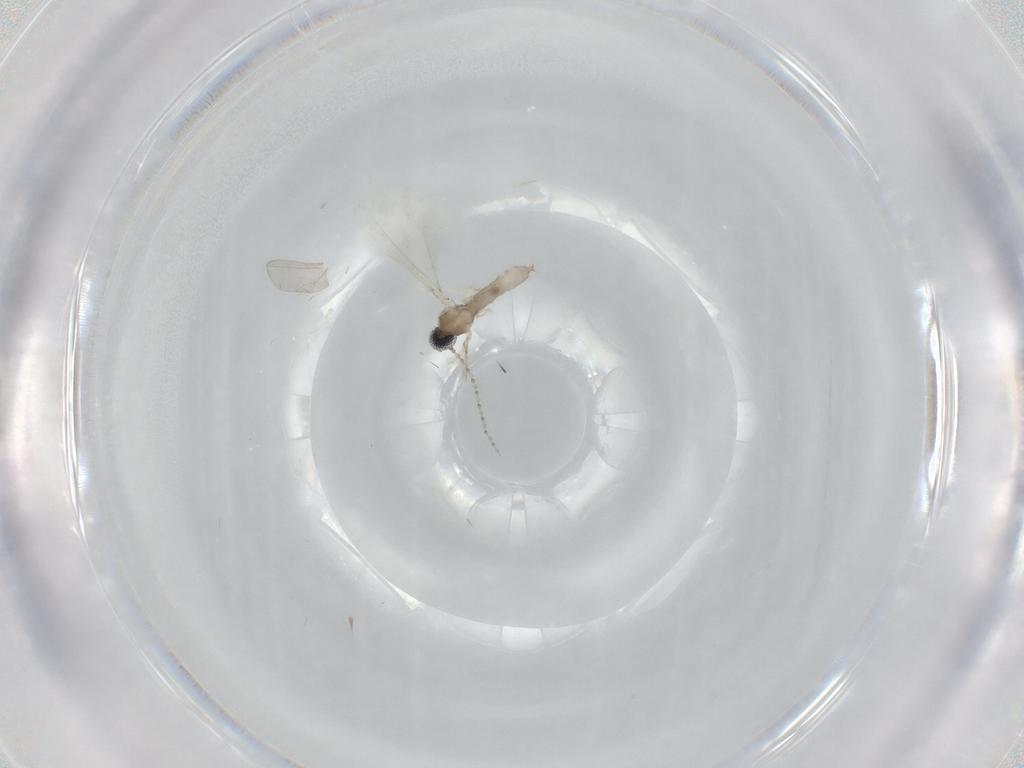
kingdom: Animalia
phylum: Arthropoda
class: Insecta
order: Diptera
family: Cecidomyiidae
